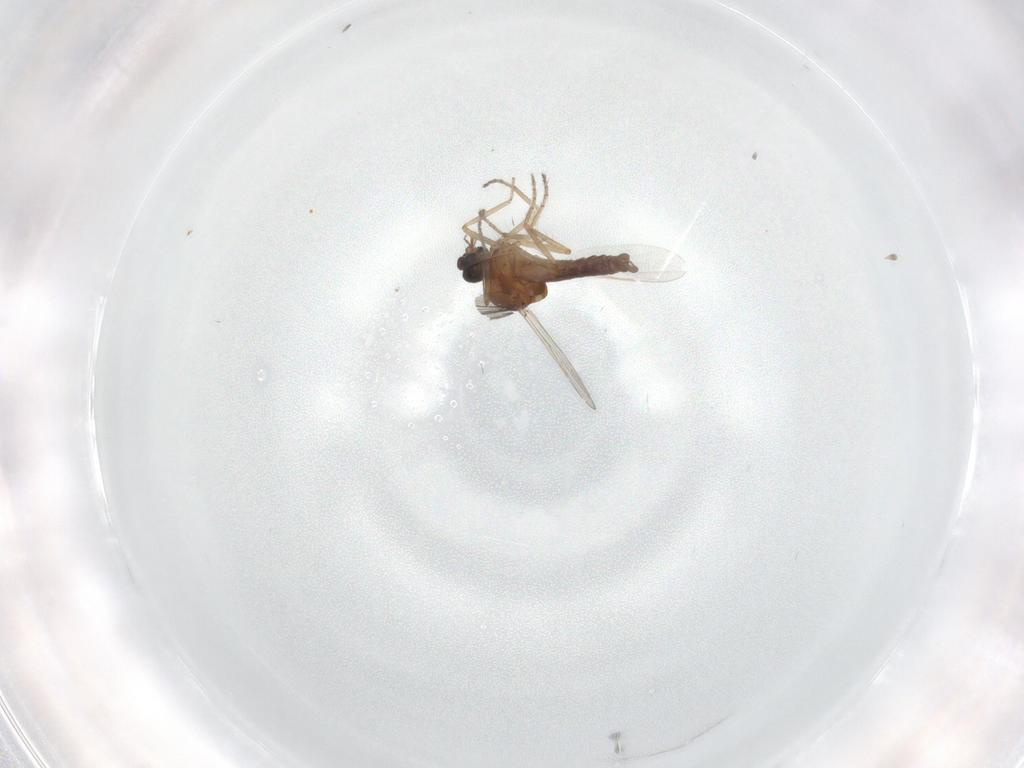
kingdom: Animalia
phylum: Arthropoda
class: Insecta
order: Diptera
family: Ceratopogonidae
